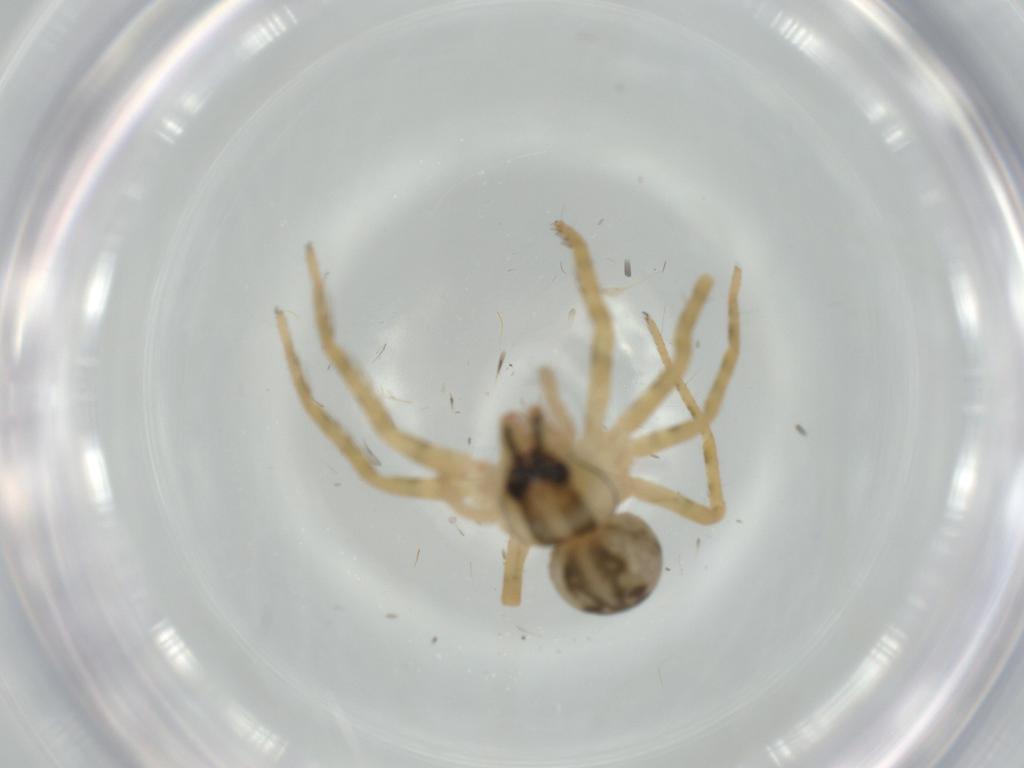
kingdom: Animalia
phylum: Arthropoda
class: Arachnida
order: Araneae
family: Trechaleidae
